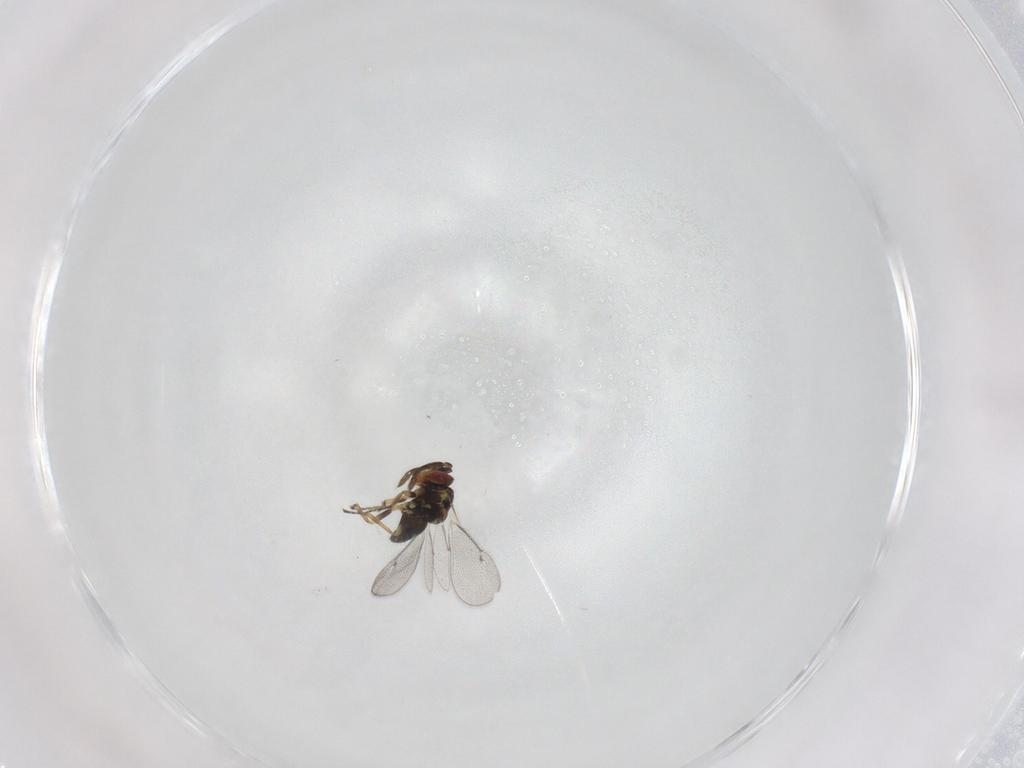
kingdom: Animalia
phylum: Arthropoda
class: Insecta
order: Hymenoptera
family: Eulophidae
